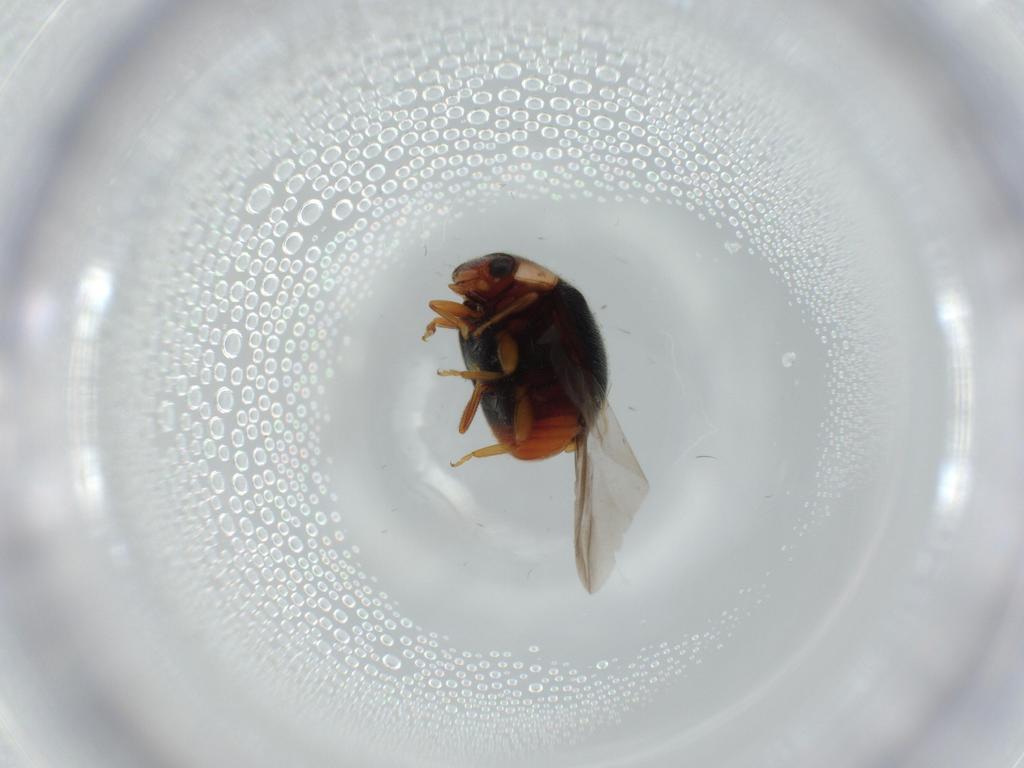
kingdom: Animalia
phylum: Arthropoda
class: Insecta
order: Coleoptera
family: Coccinellidae
